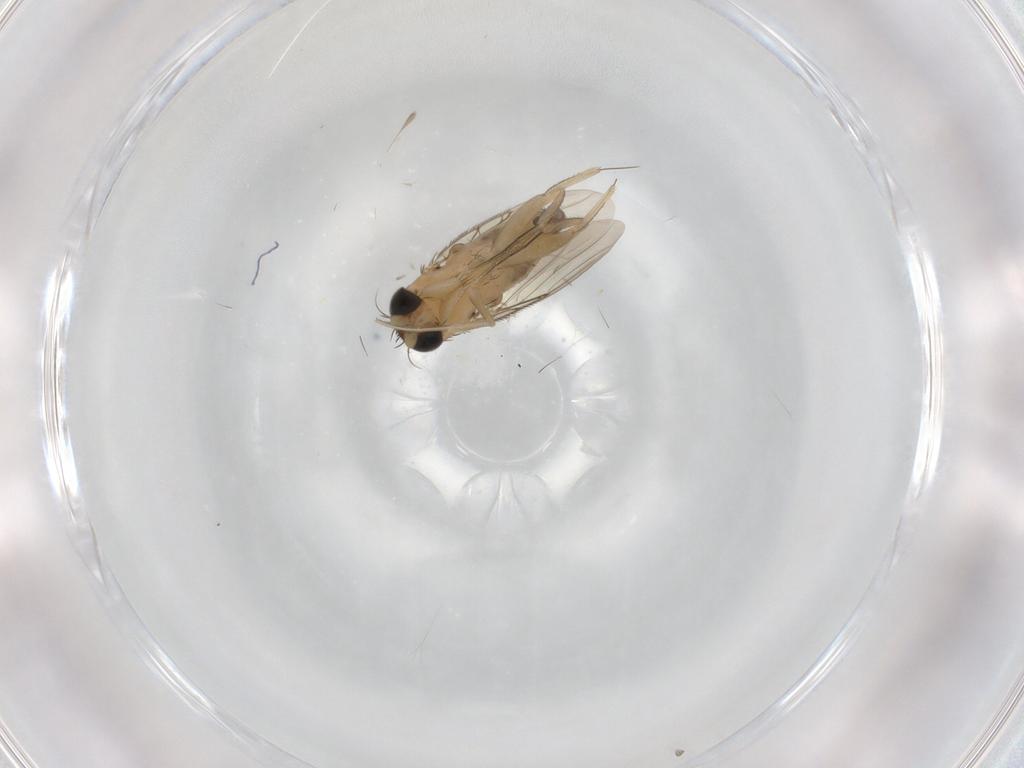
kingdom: Animalia
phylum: Arthropoda
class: Insecta
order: Diptera
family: Phoridae
